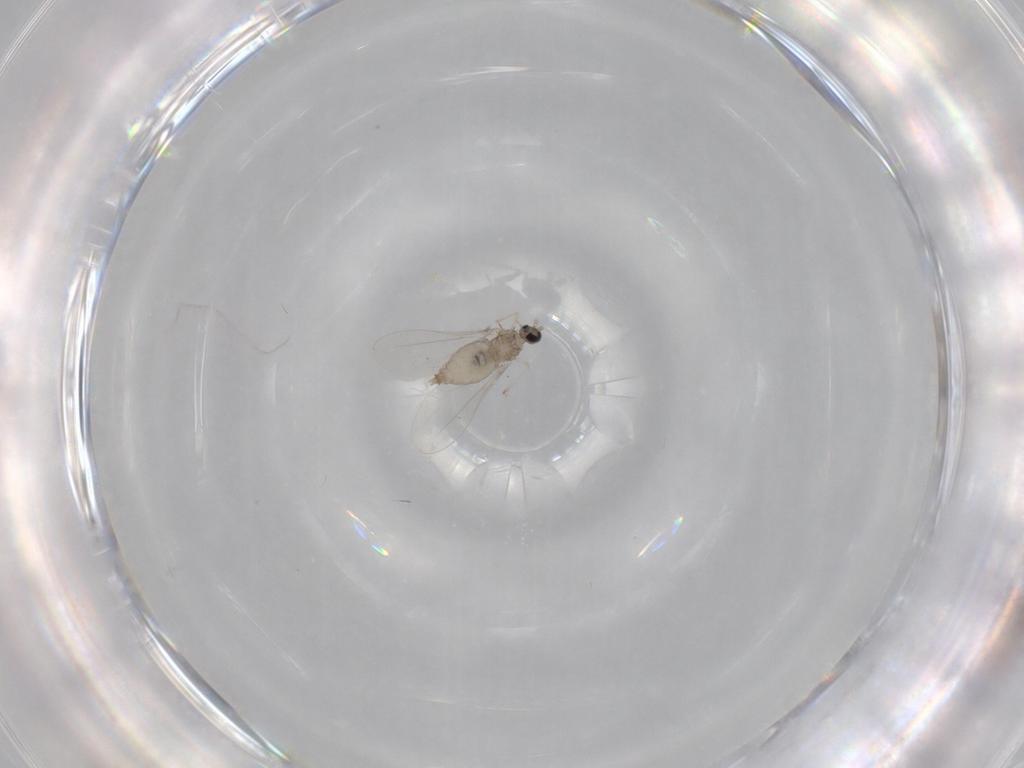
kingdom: Animalia
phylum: Arthropoda
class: Insecta
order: Diptera
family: Cecidomyiidae
